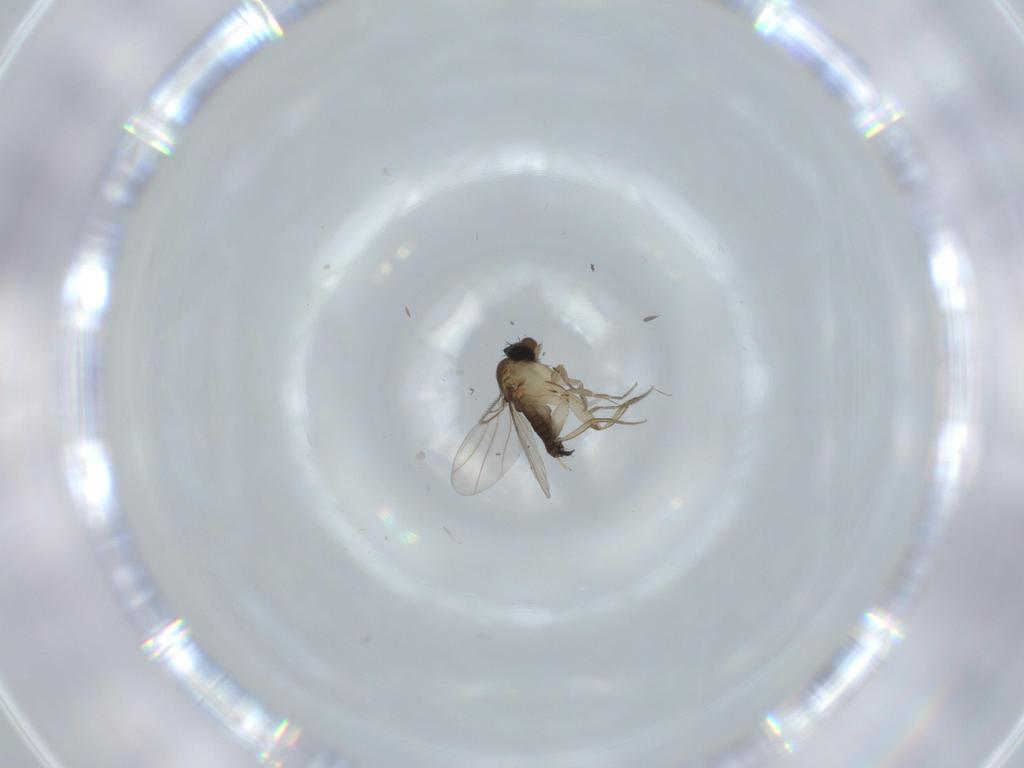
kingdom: Animalia
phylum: Arthropoda
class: Insecta
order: Diptera
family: Phoridae
